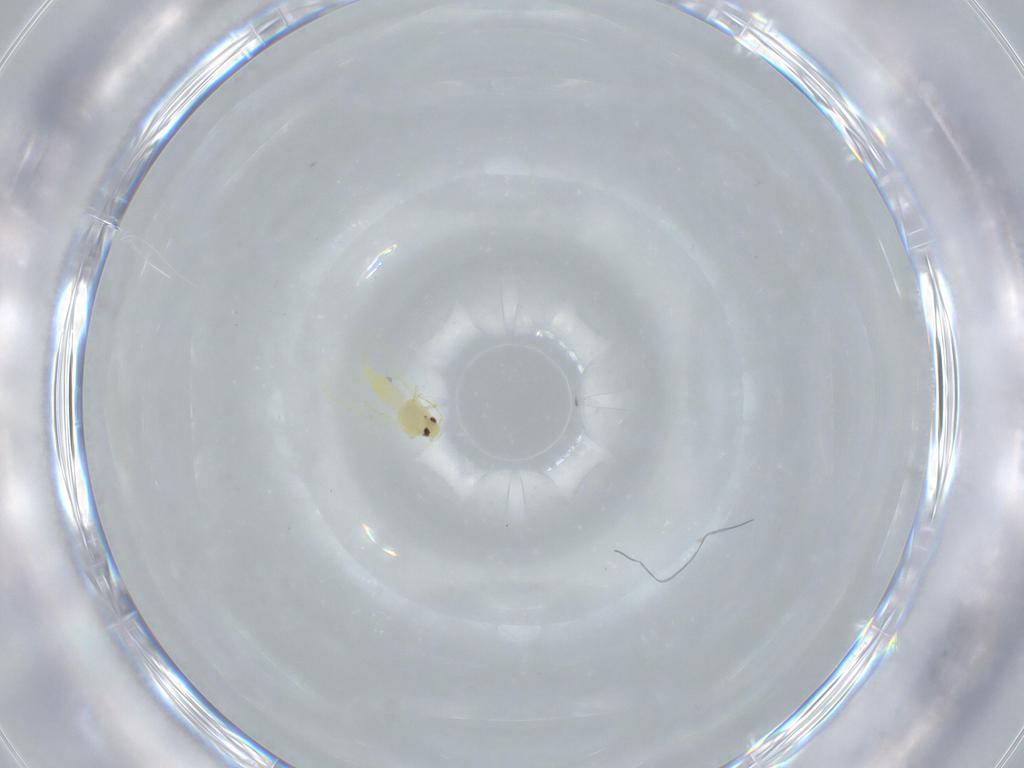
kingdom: Animalia
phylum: Arthropoda
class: Insecta
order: Hemiptera
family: Aleyrodidae
